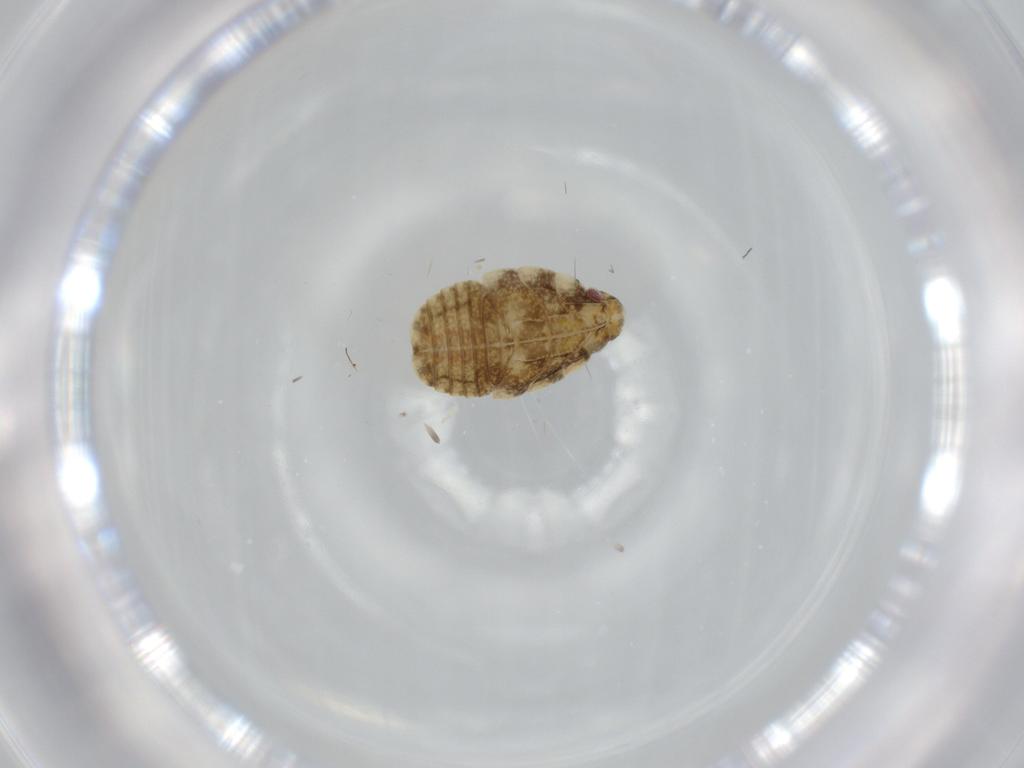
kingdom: Animalia
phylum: Arthropoda
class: Insecta
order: Hemiptera
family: Flatidae
